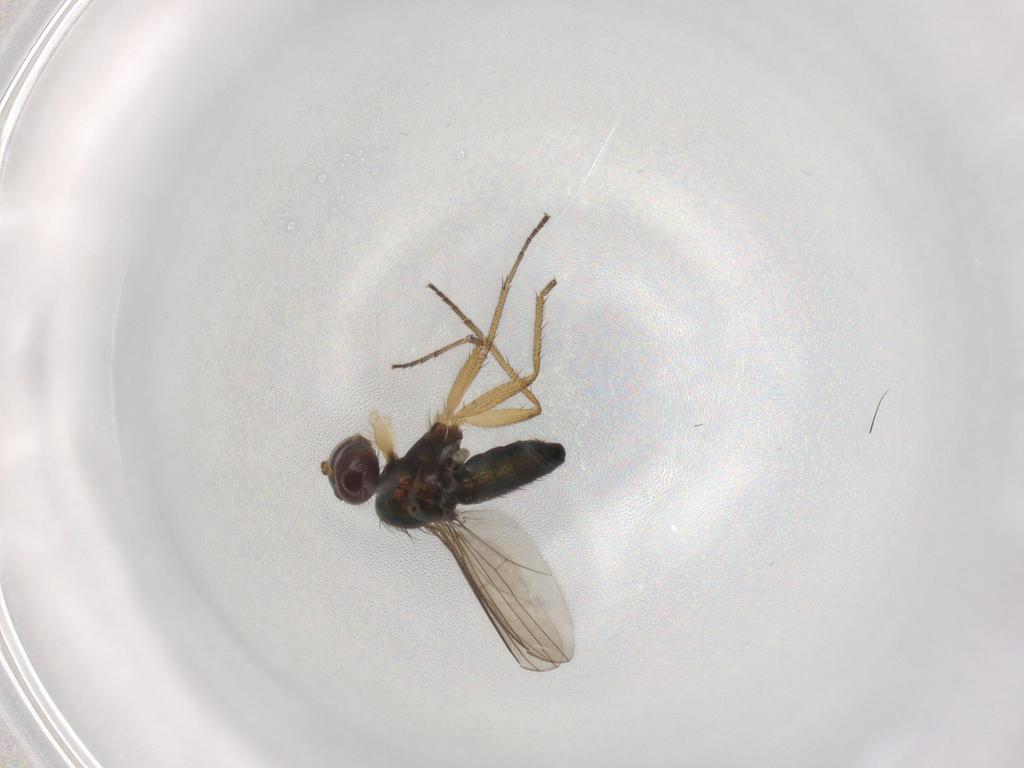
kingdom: Animalia
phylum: Arthropoda
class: Insecta
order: Diptera
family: Dolichopodidae
